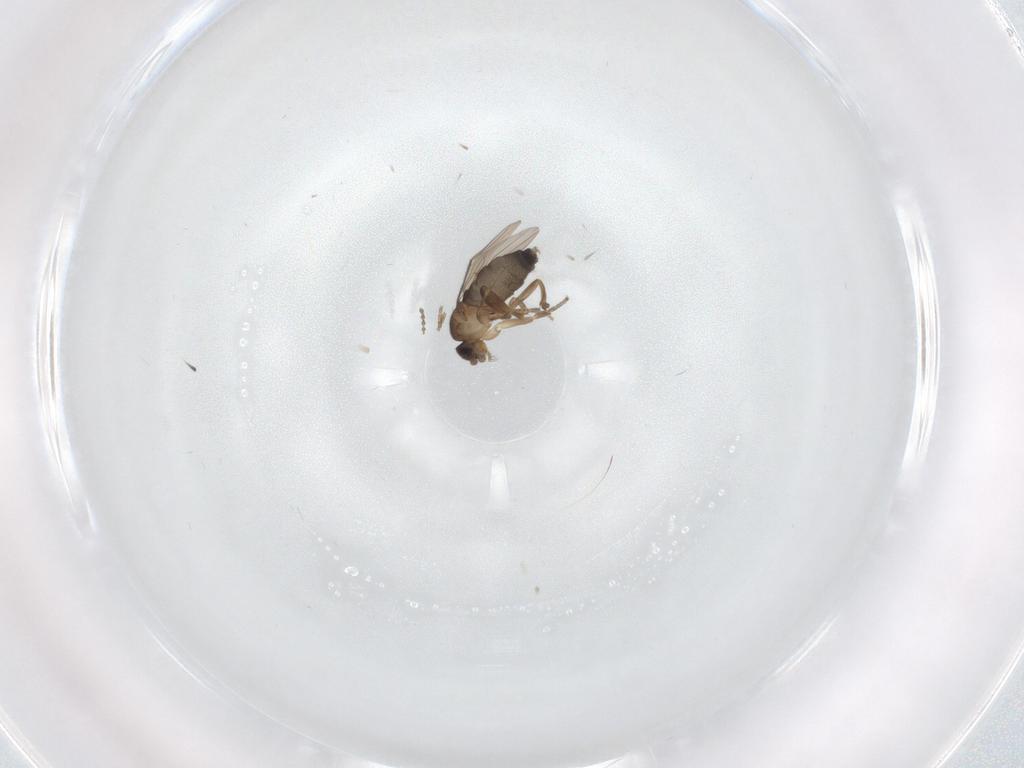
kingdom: Animalia
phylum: Arthropoda
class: Insecta
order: Diptera
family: Phoridae
